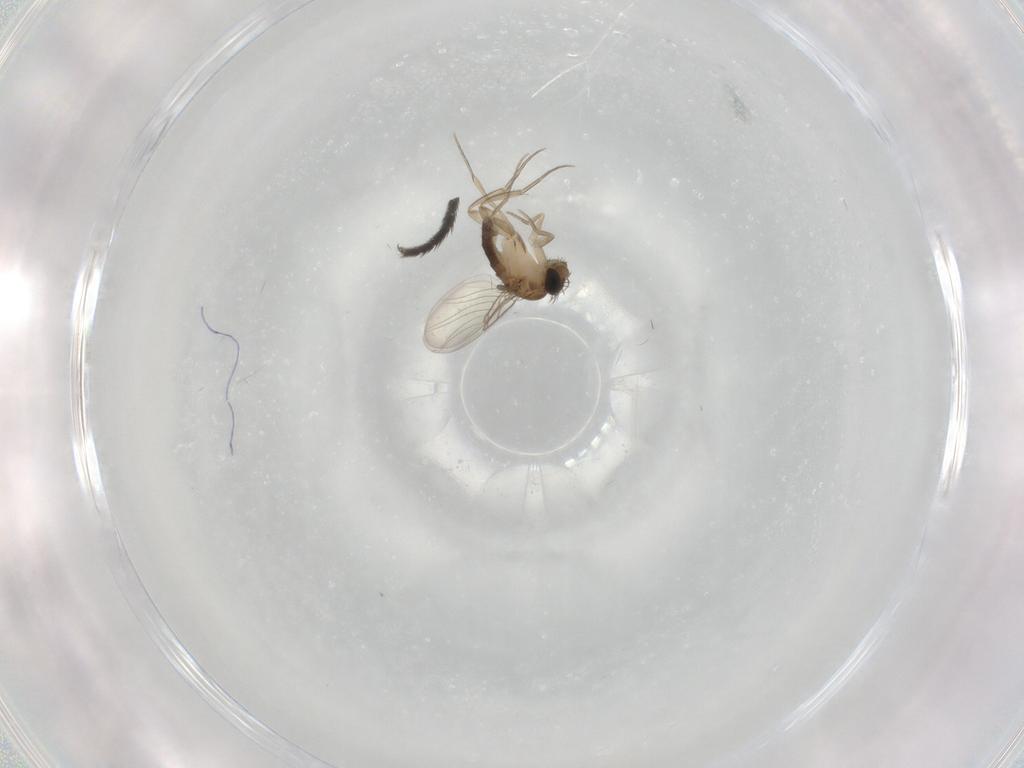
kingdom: Animalia
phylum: Arthropoda
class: Insecta
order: Diptera
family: Phoridae
